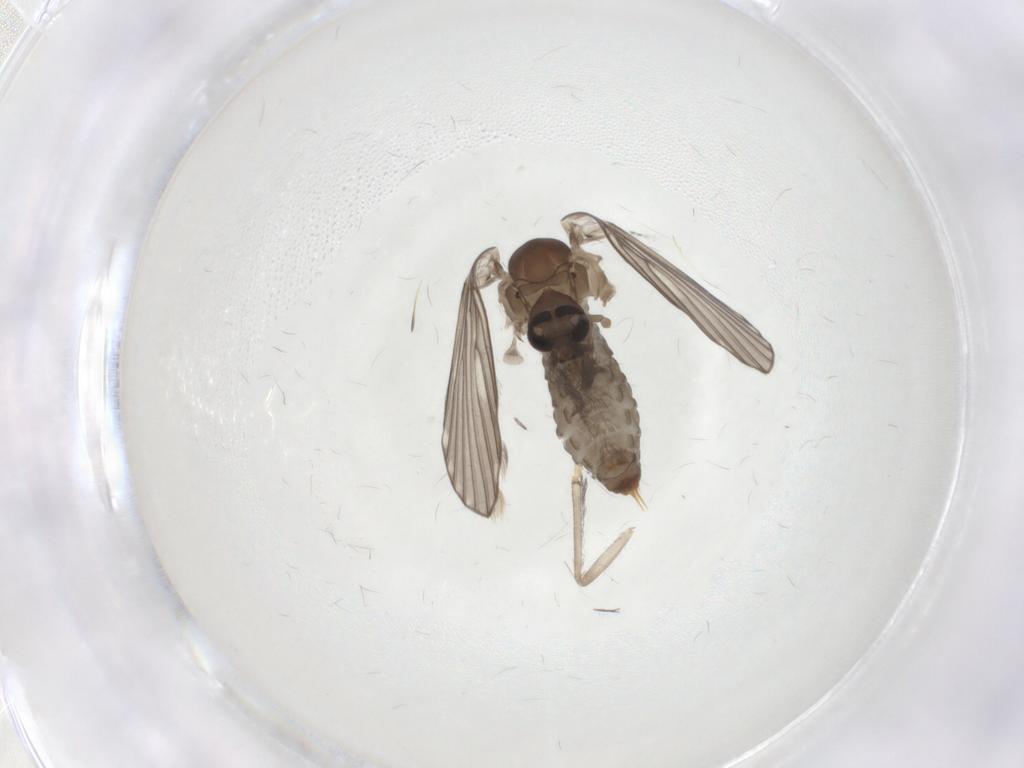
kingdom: Animalia
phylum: Arthropoda
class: Insecta
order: Diptera
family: Psychodidae
